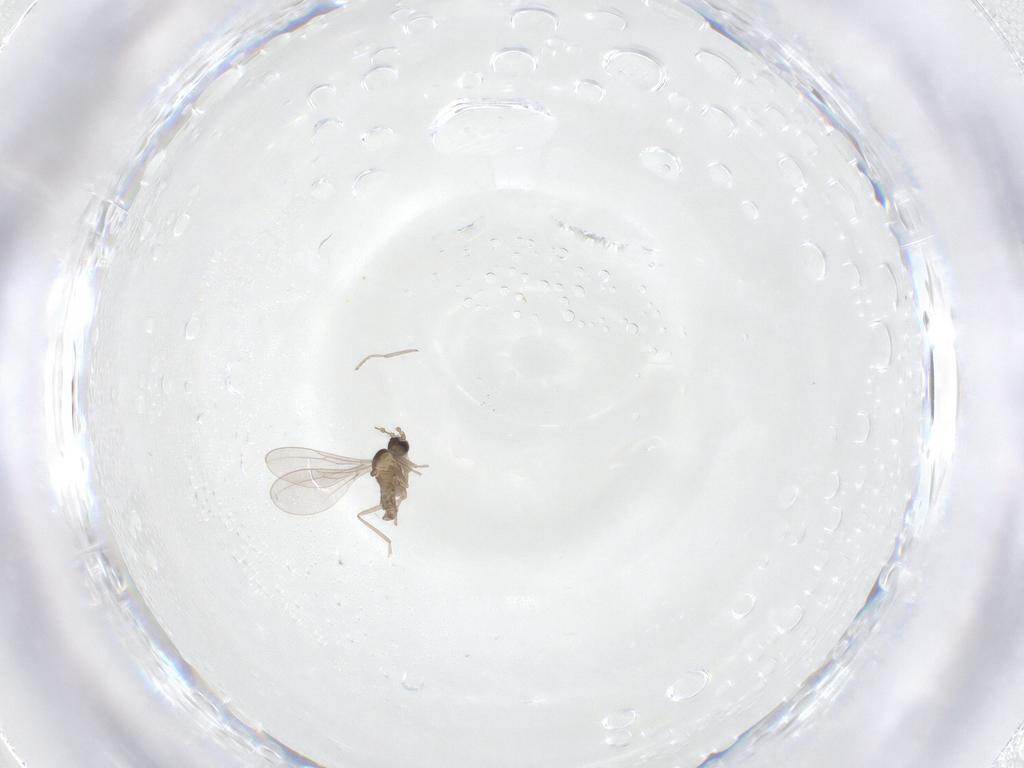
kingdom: Animalia
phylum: Arthropoda
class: Insecta
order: Diptera
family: Cecidomyiidae
